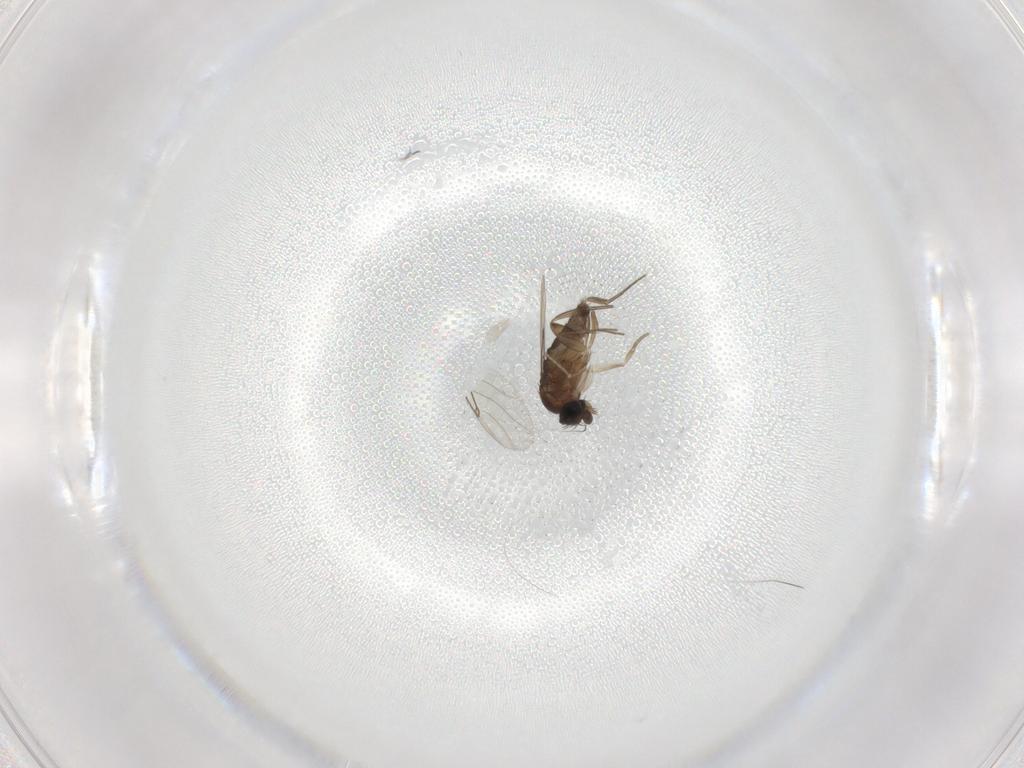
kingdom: Animalia
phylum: Arthropoda
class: Insecta
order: Diptera
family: Phoridae
